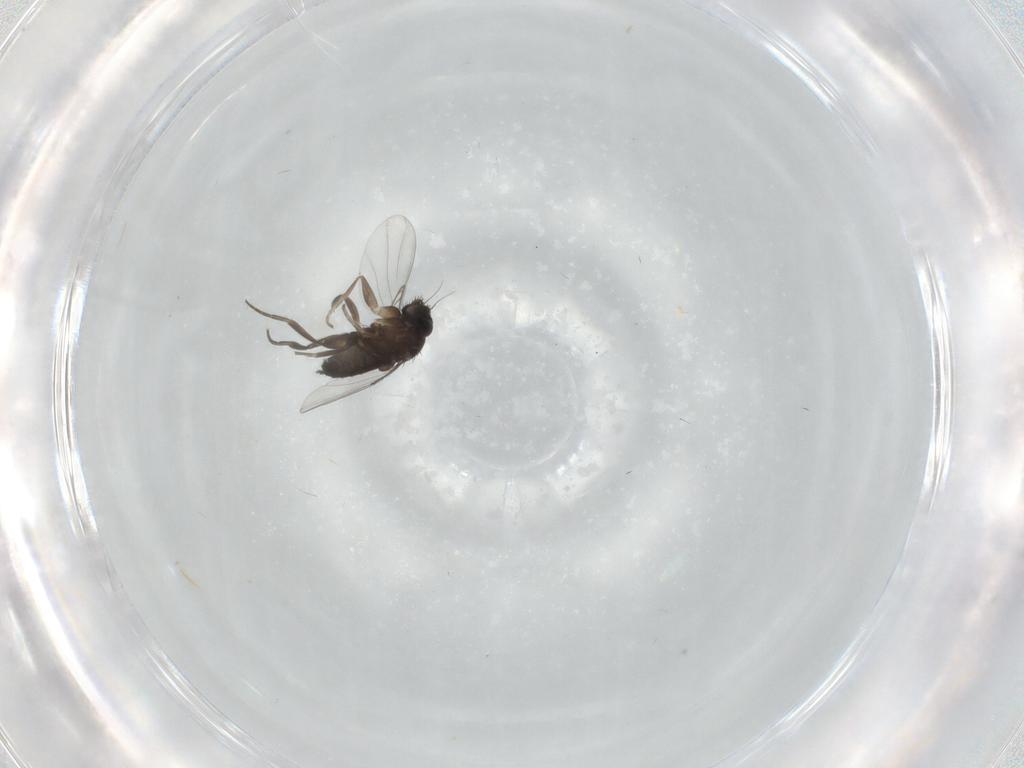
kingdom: Animalia
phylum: Arthropoda
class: Insecta
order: Diptera
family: Phoridae
